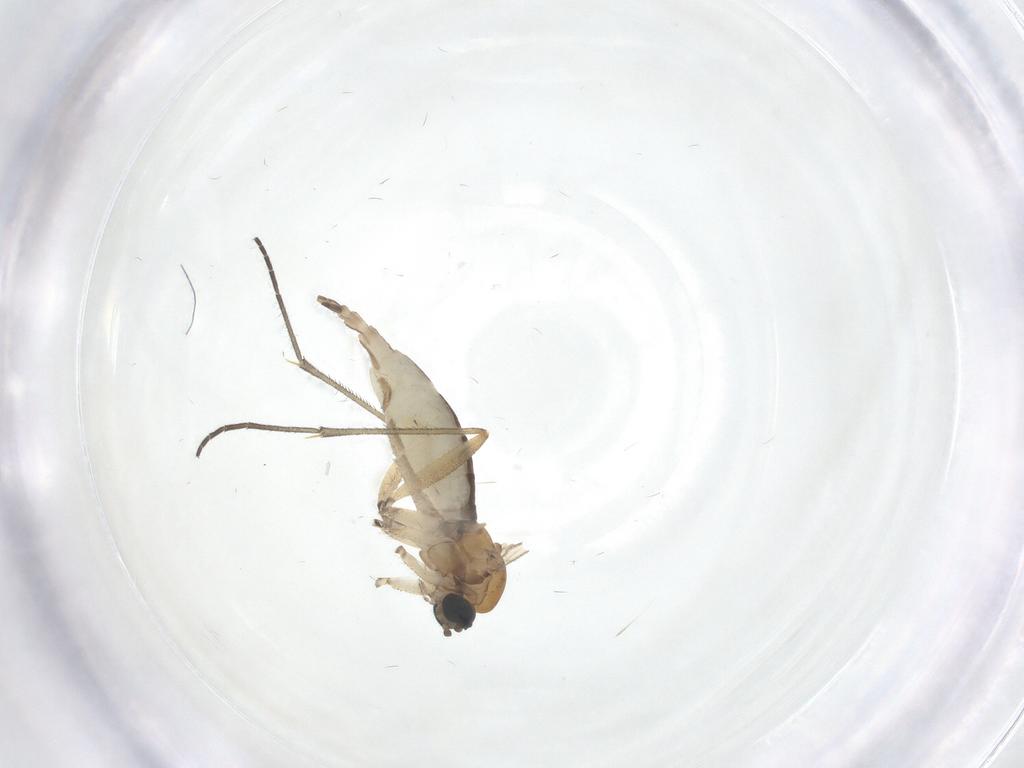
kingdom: Animalia
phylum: Arthropoda
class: Insecta
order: Diptera
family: Sciaridae
